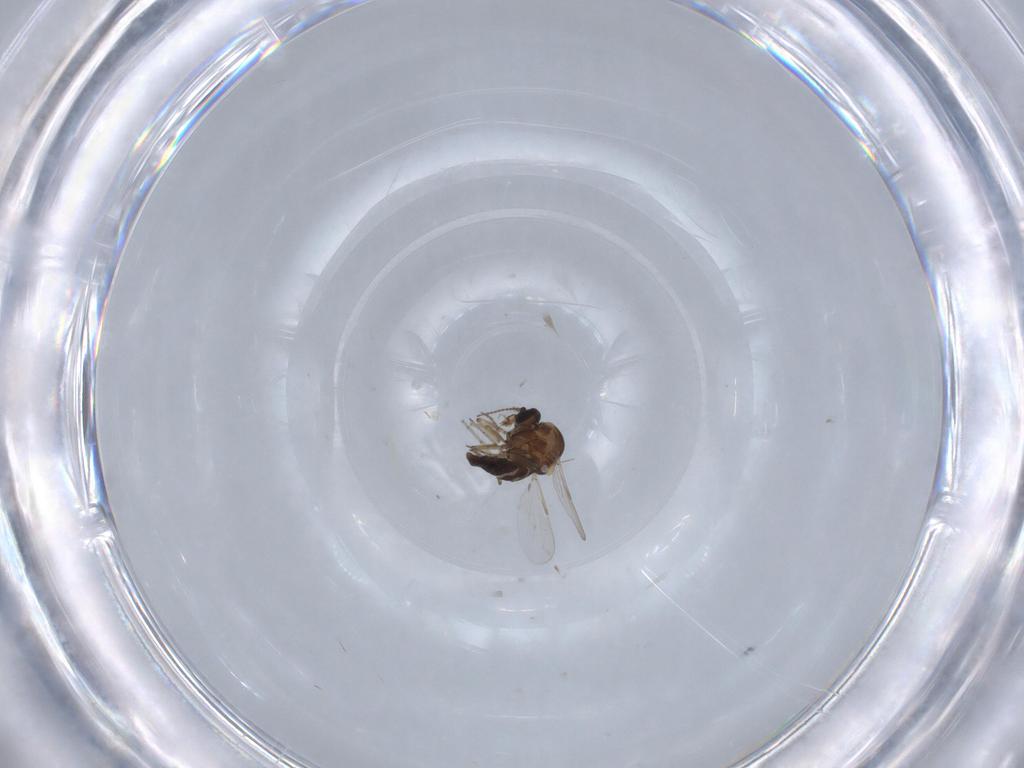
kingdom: Animalia
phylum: Arthropoda
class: Insecta
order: Diptera
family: Ceratopogonidae
